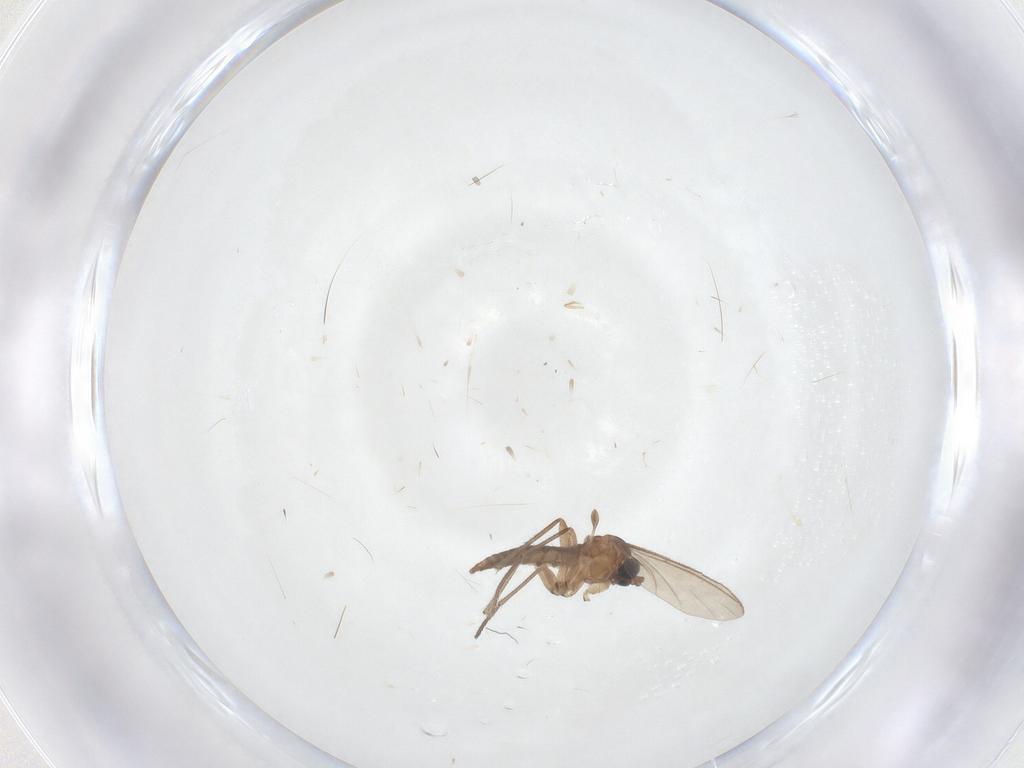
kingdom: Animalia
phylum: Arthropoda
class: Insecta
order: Diptera
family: Sciaridae
